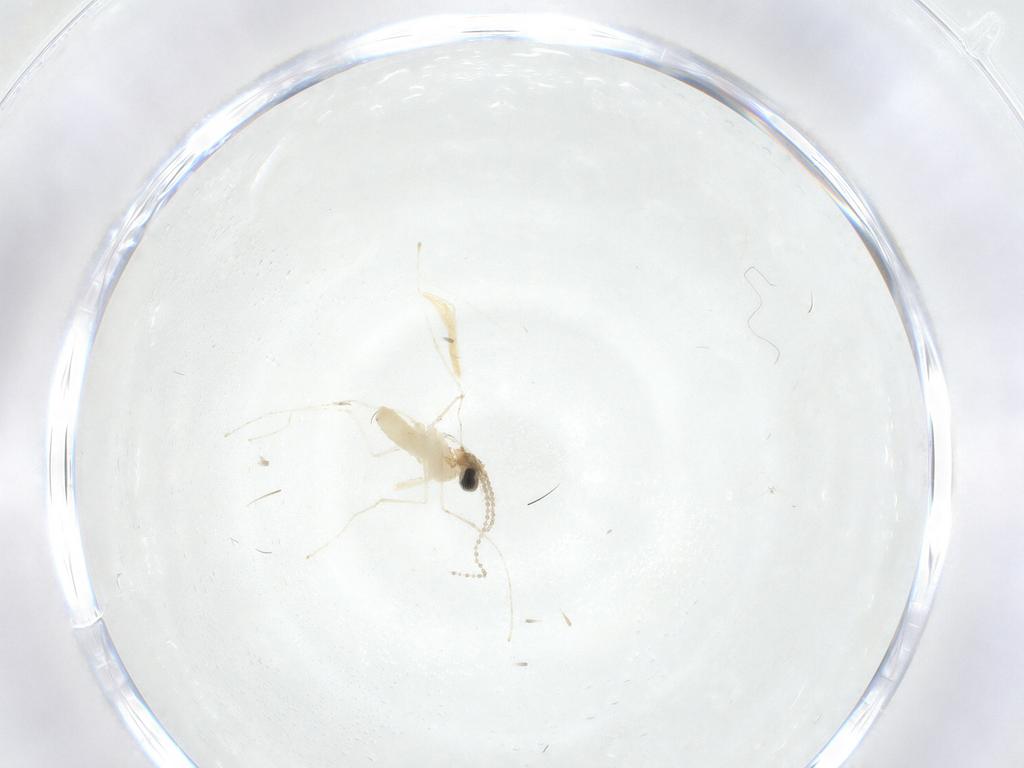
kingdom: Animalia
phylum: Arthropoda
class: Insecta
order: Diptera
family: Cecidomyiidae
